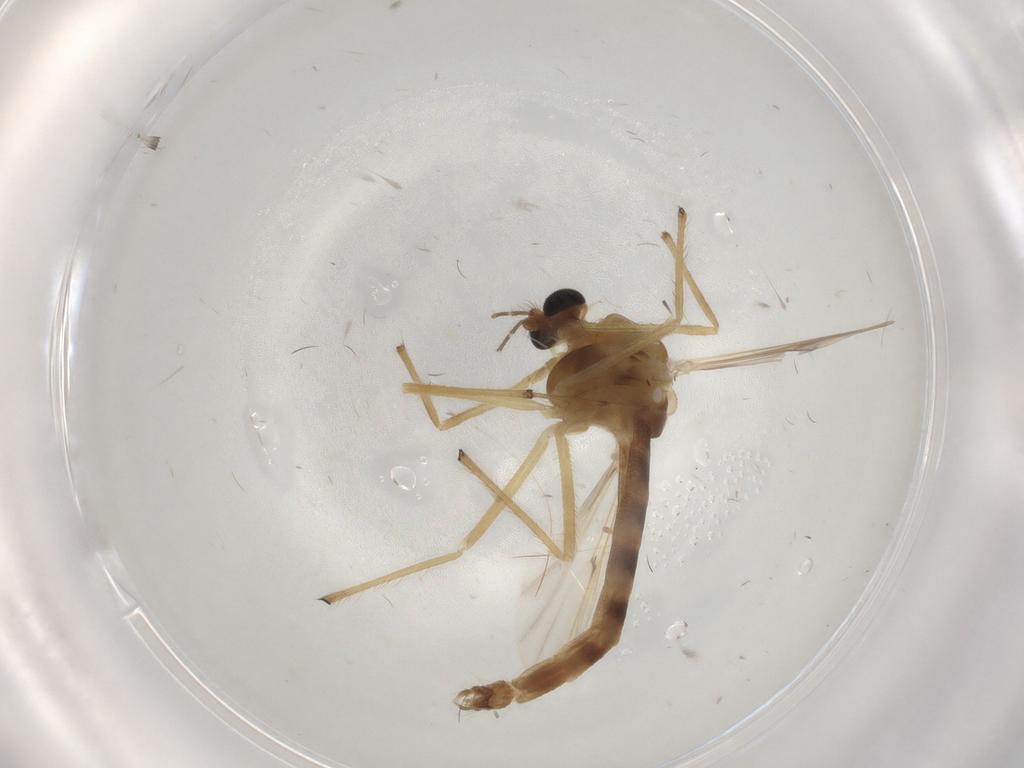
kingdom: Animalia
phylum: Arthropoda
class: Insecta
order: Diptera
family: Chironomidae
